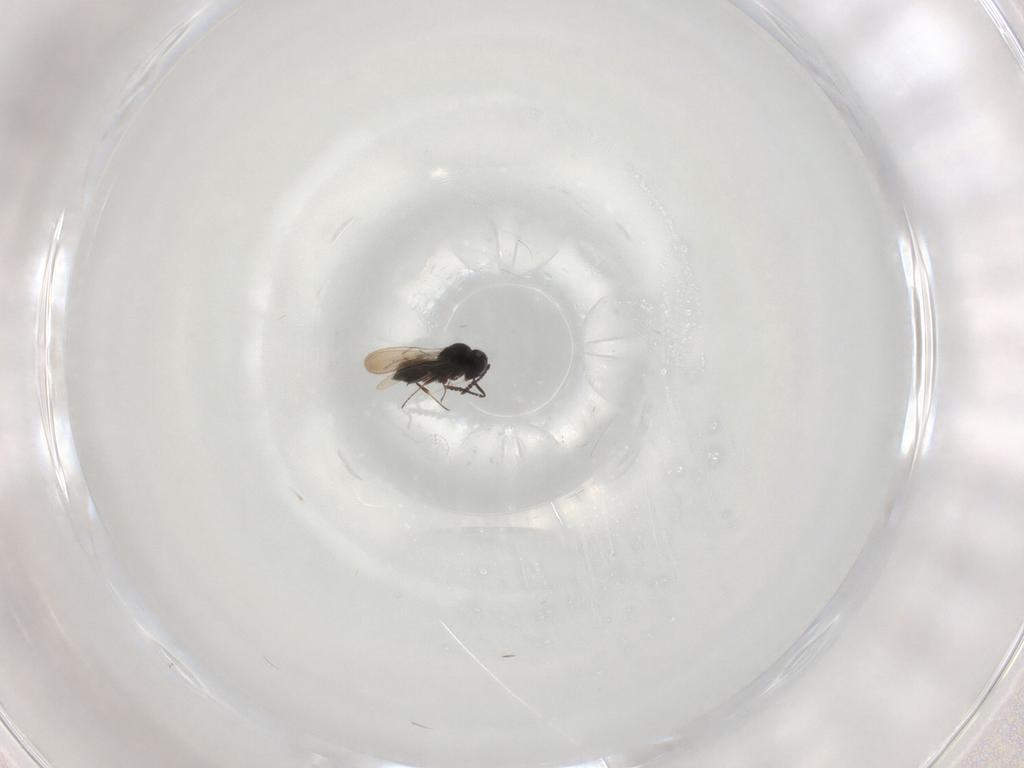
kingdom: Animalia
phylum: Arthropoda
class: Insecta
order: Hymenoptera
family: Scelionidae
